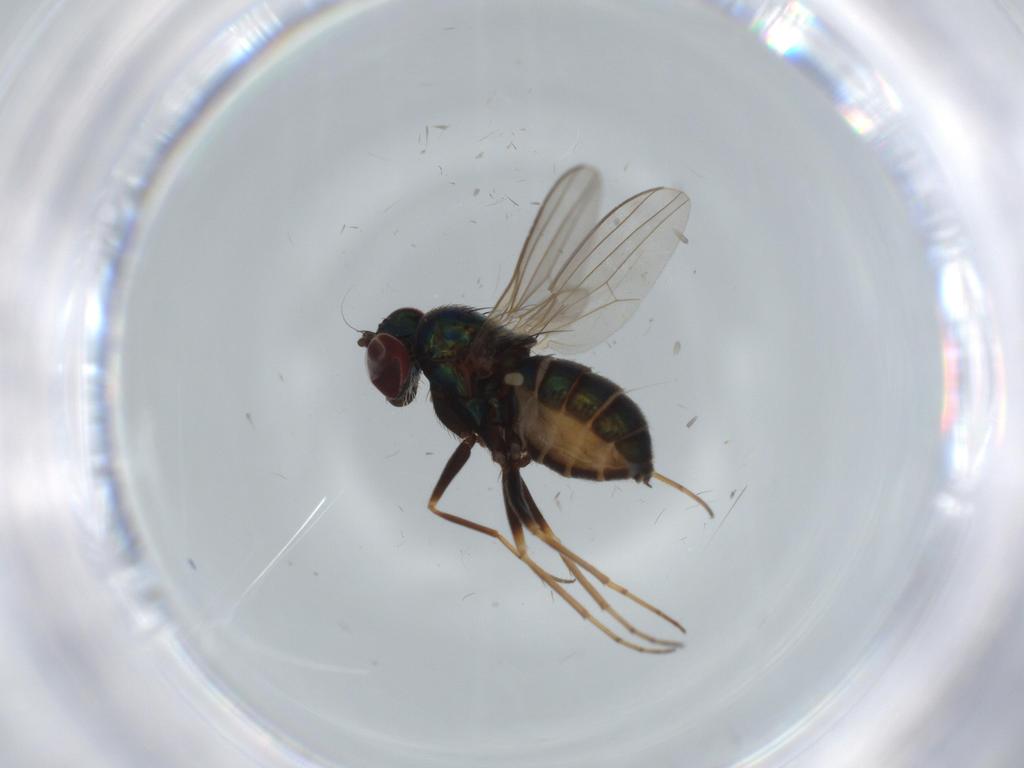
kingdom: Animalia
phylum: Arthropoda
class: Insecta
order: Diptera
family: Dolichopodidae
